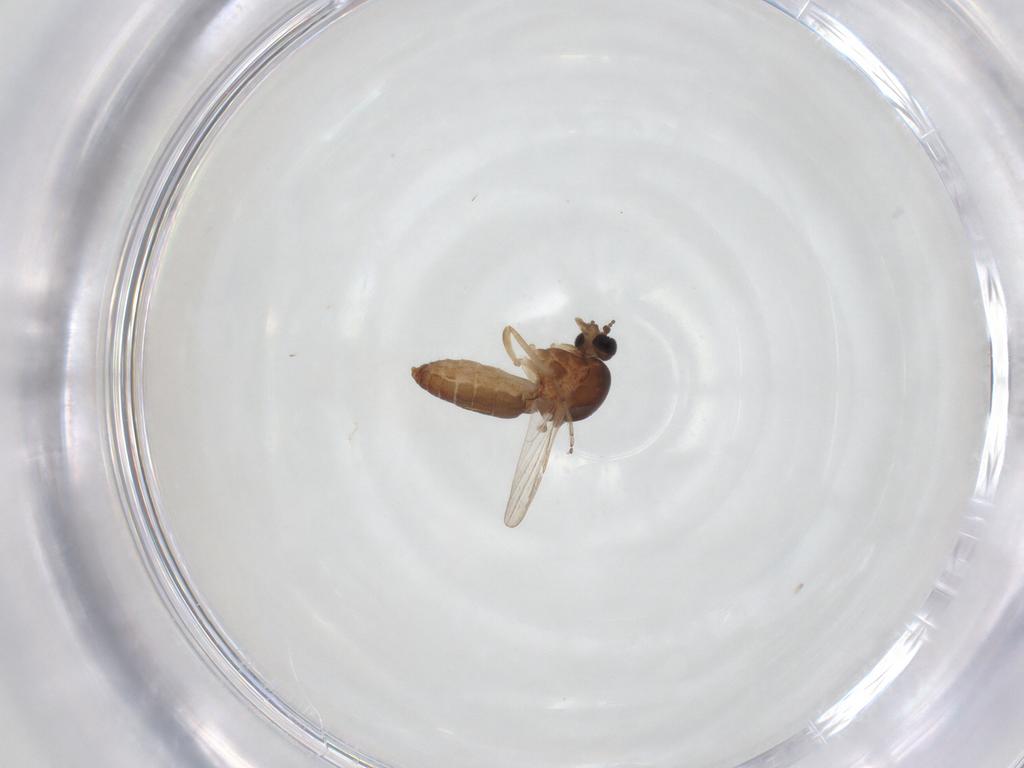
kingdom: Animalia
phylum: Arthropoda
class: Insecta
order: Diptera
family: Ceratopogonidae
